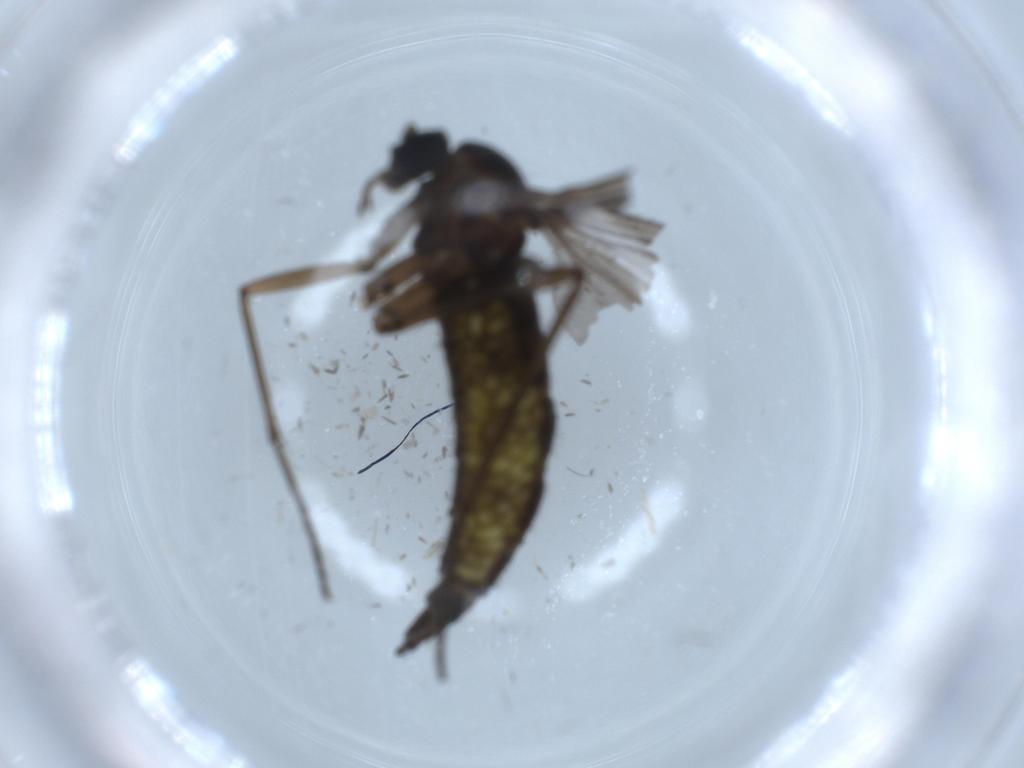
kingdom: Animalia
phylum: Arthropoda
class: Insecta
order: Diptera
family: Sciaridae
